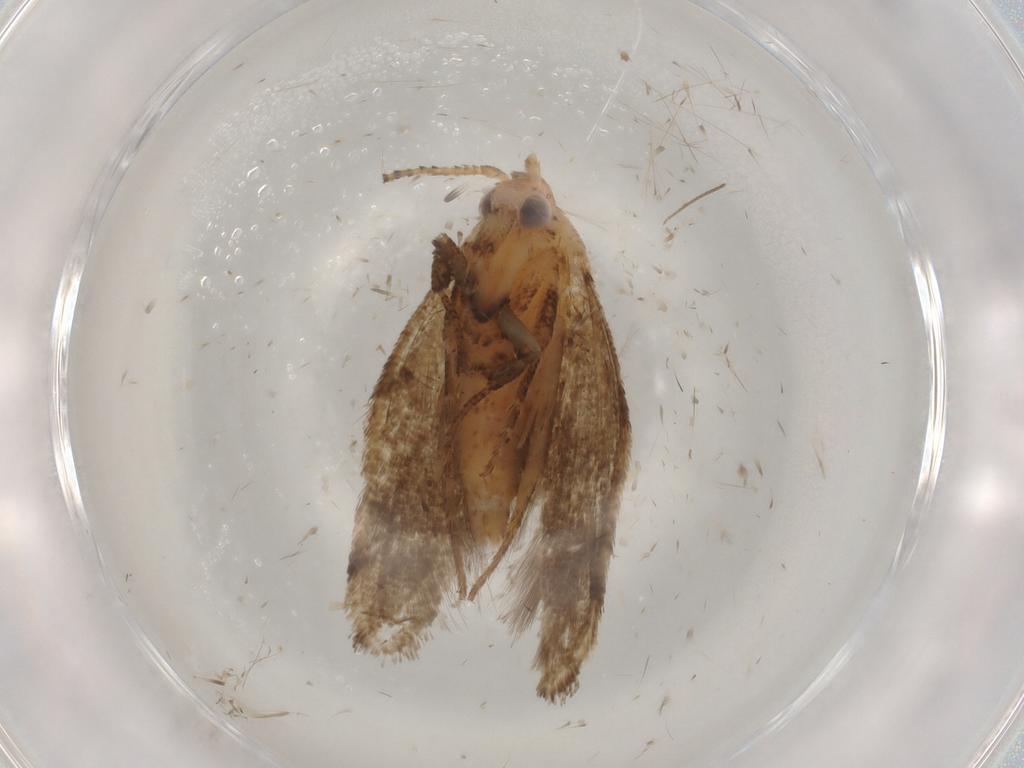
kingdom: Animalia
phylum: Arthropoda
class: Insecta
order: Lepidoptera
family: Ypsolophidae
